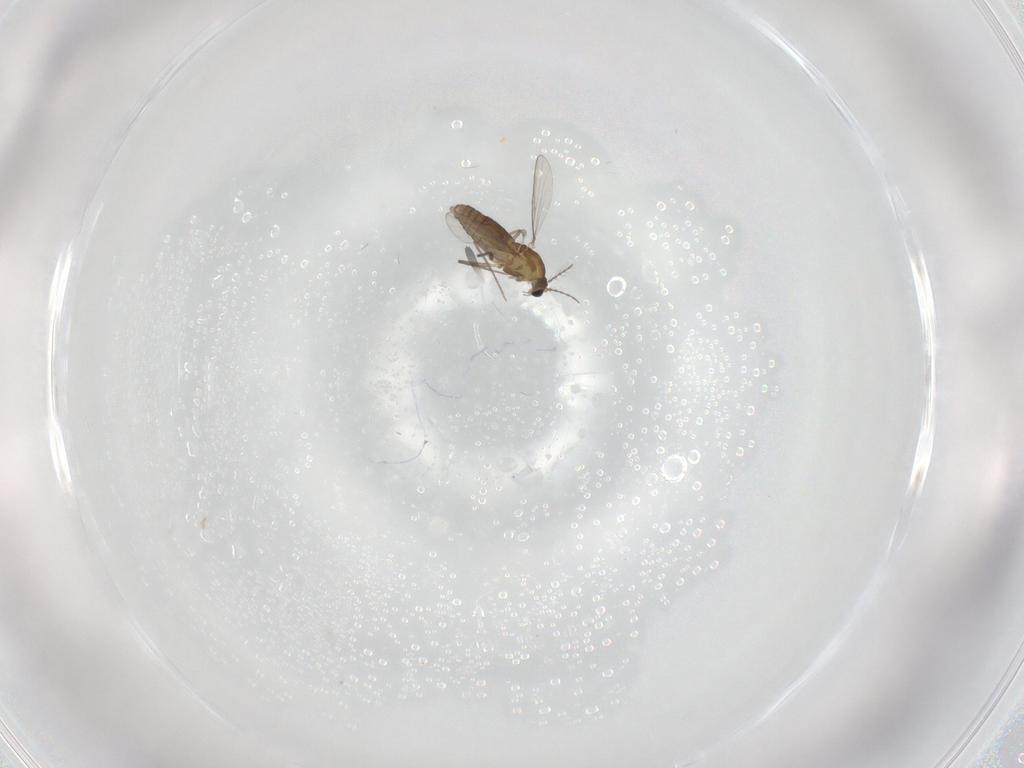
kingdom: Animalia
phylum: Arthropoda
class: Insecta
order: Diptera
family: Chironomidae
